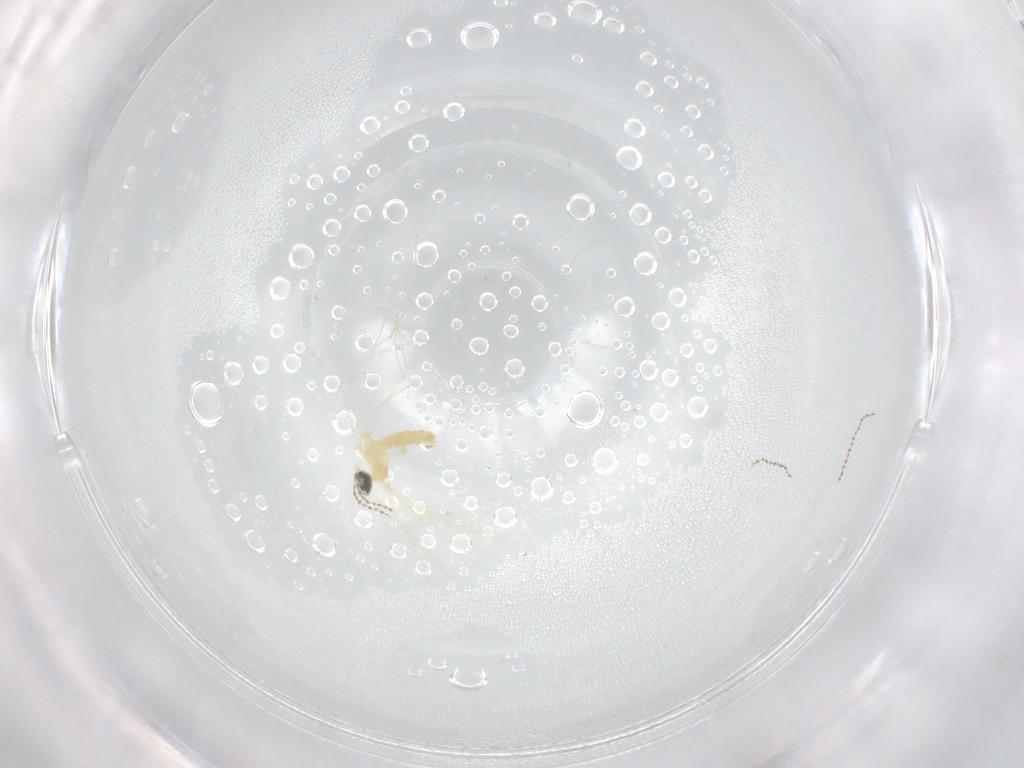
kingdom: Animalia
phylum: Arthropoda
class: Insecta
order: Diptera
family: Cecidomyiidae
